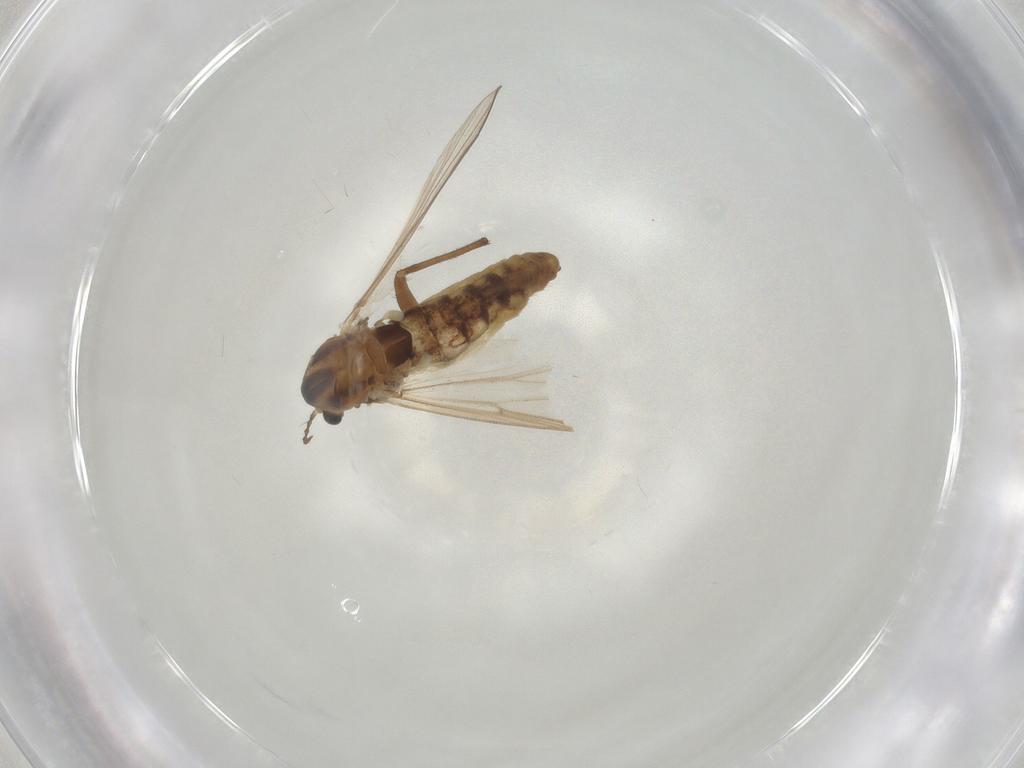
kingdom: Animalia
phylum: Arthropoda
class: Insecta
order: Diptera
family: Chironomidae
